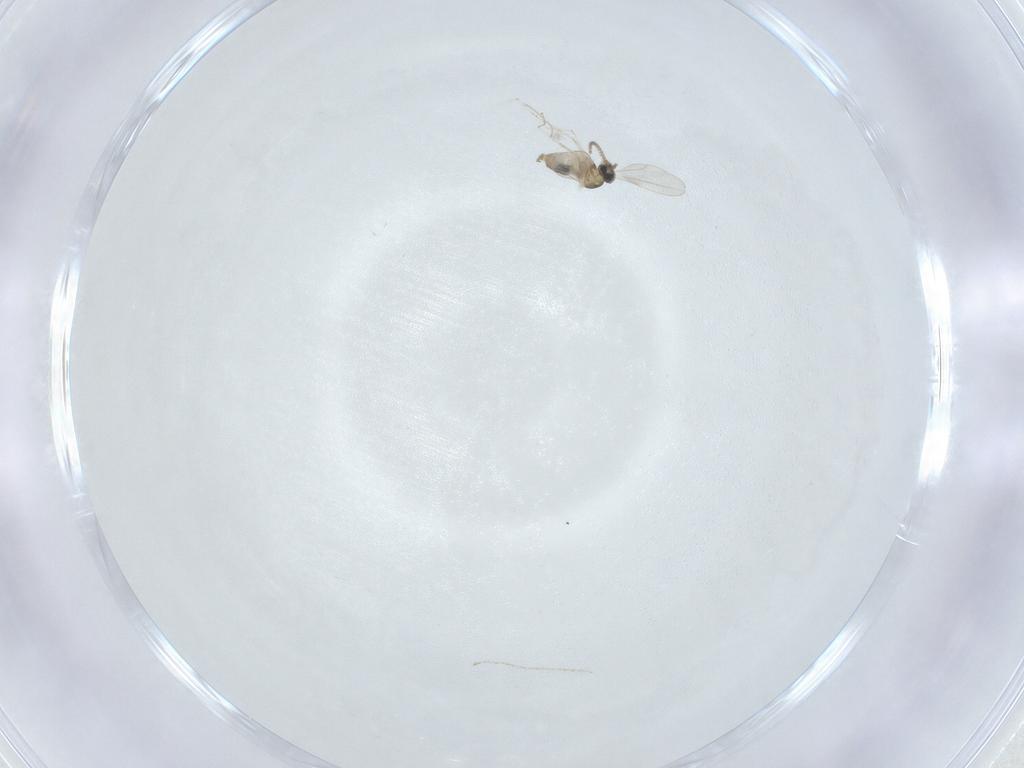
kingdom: Animalia
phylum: Arthropoda
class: Insecta
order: Diptera
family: Cecidomyiidae
